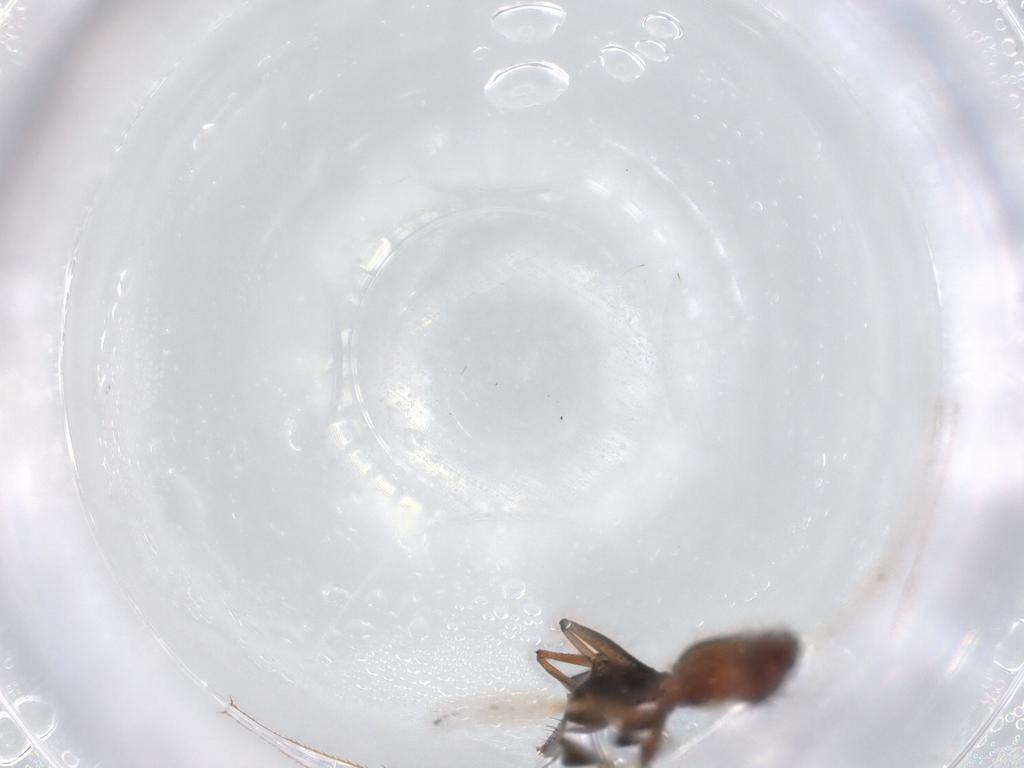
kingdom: Animalia
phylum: Arthropoda
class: Insecta
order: Hymenoptera
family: Formicidae
